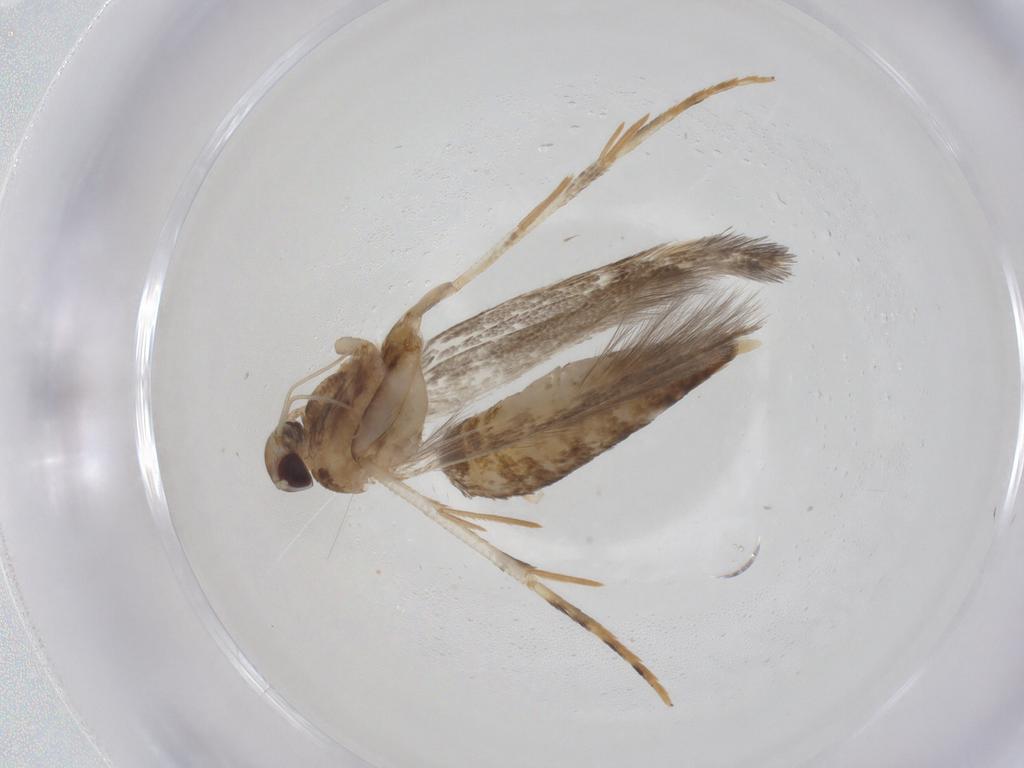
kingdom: Animalia
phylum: Arthropoda
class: Insecta
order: Lepidoptera
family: Cosmopterigidae
